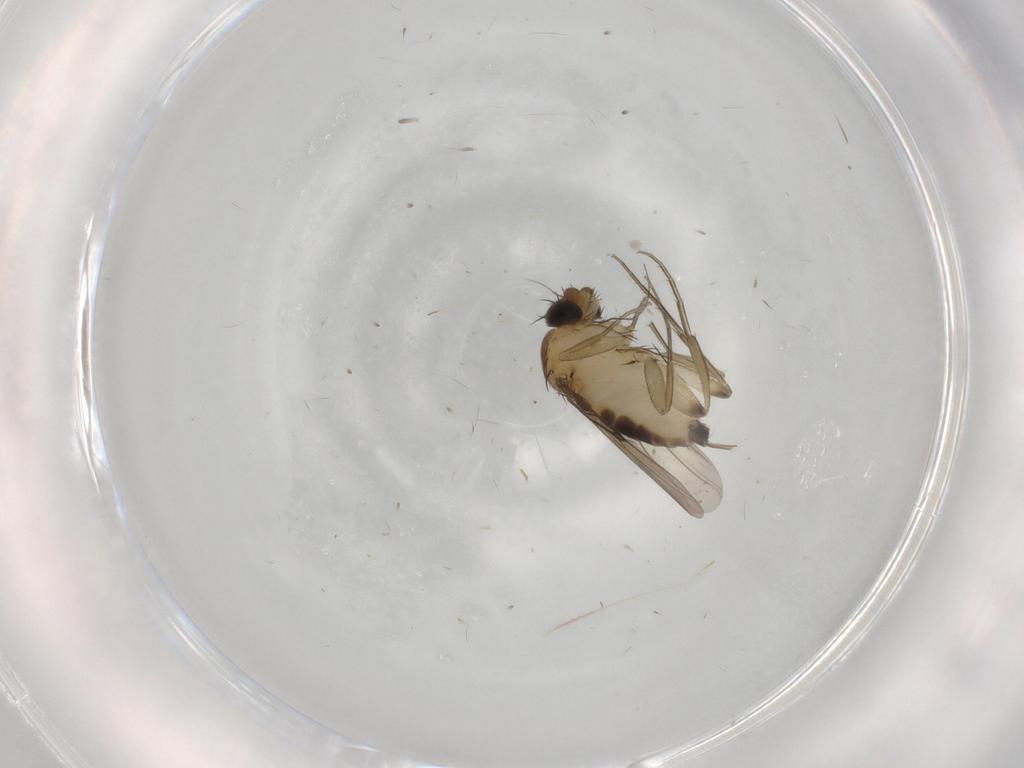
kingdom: Animalia
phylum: Arthropoda
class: Insecta
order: Diptera
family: Phoridae
